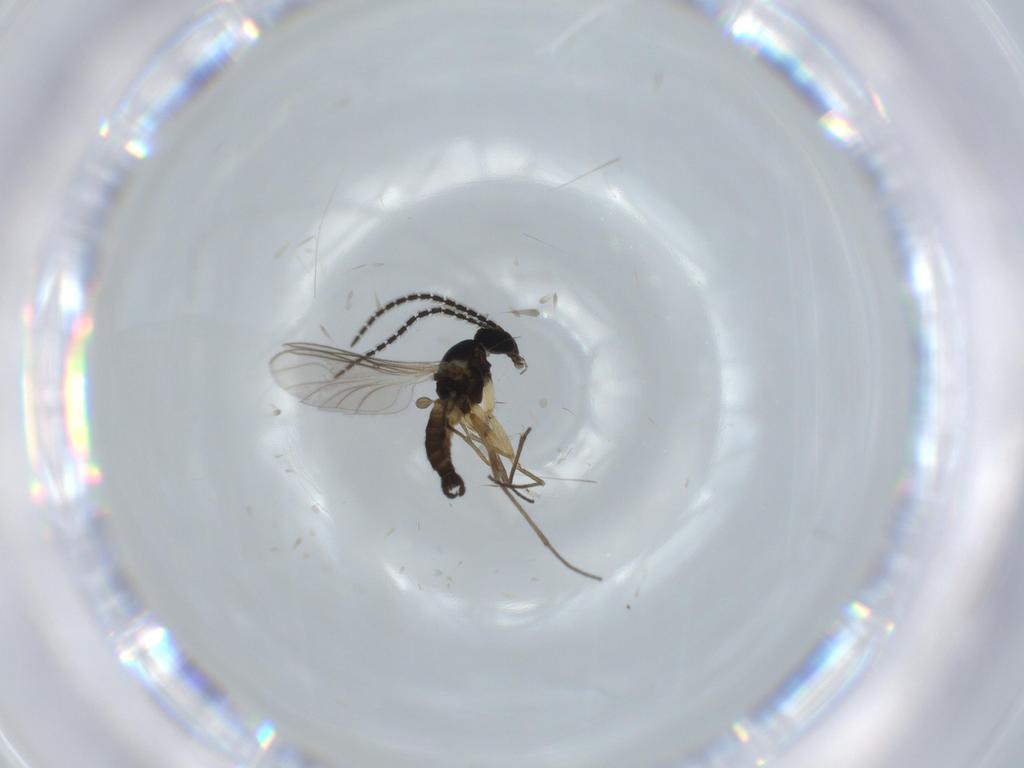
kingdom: Animalia
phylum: Arthropoda
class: Insecta
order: Diptera
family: Sciaridae
